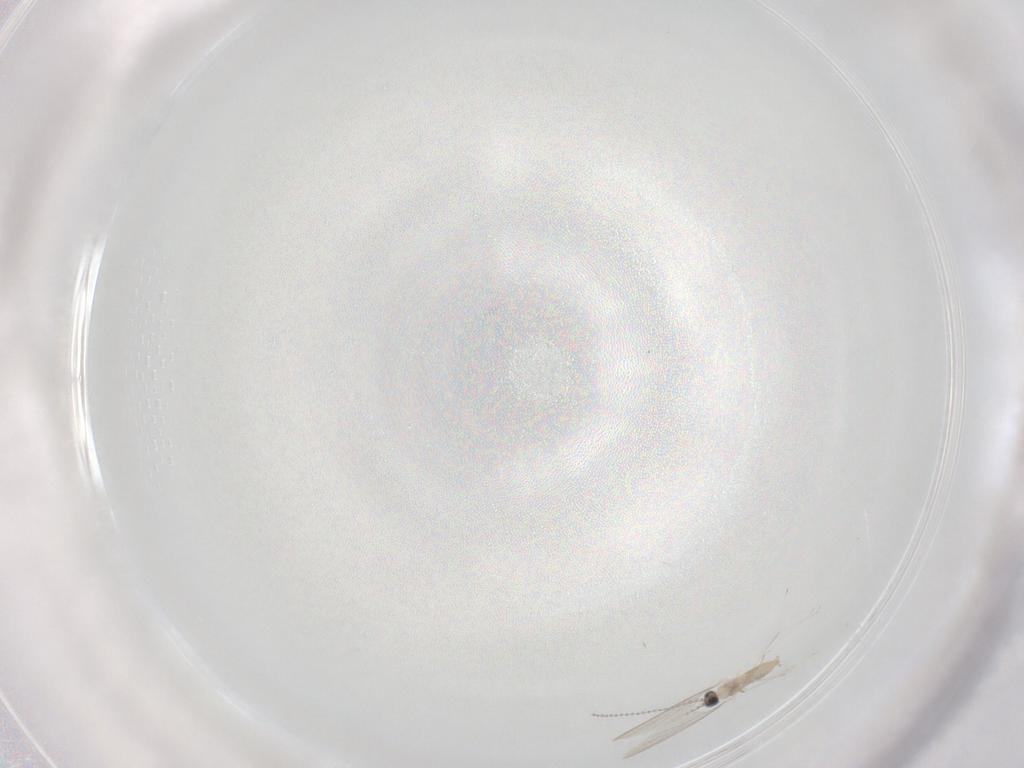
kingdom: Animalia
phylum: Arthropoda
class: Insecta
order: Diptera
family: Cecidomyiidae
